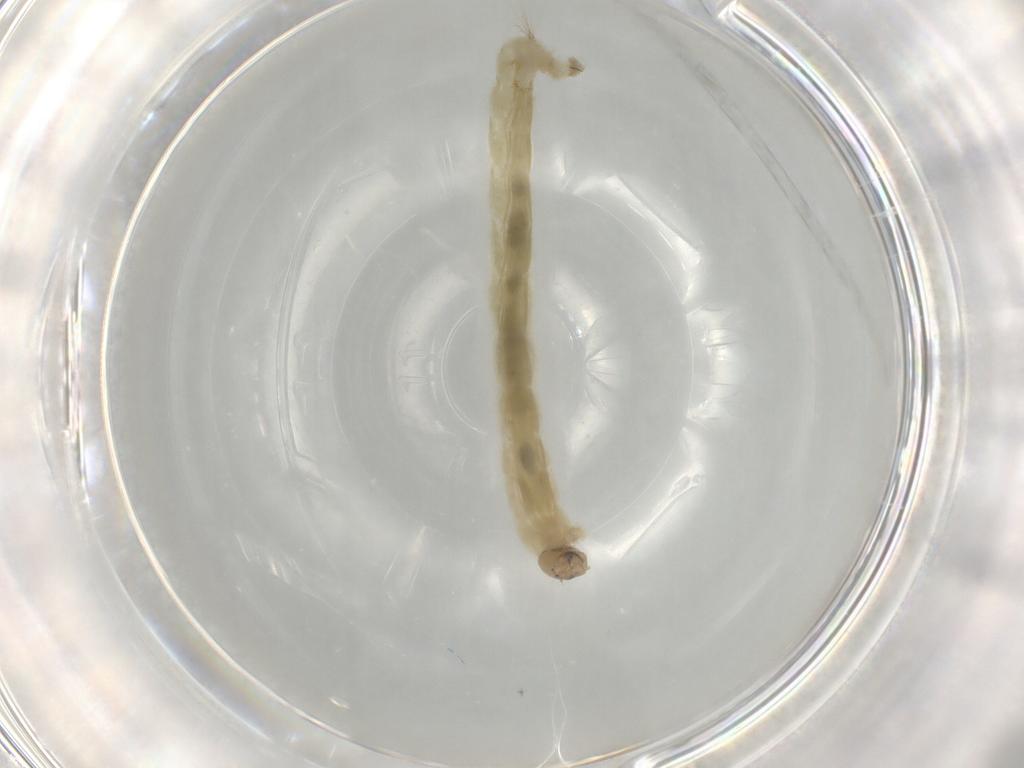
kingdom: Animalia
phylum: Arthropoda
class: Insecta
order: Diptera
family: Chironomidae
